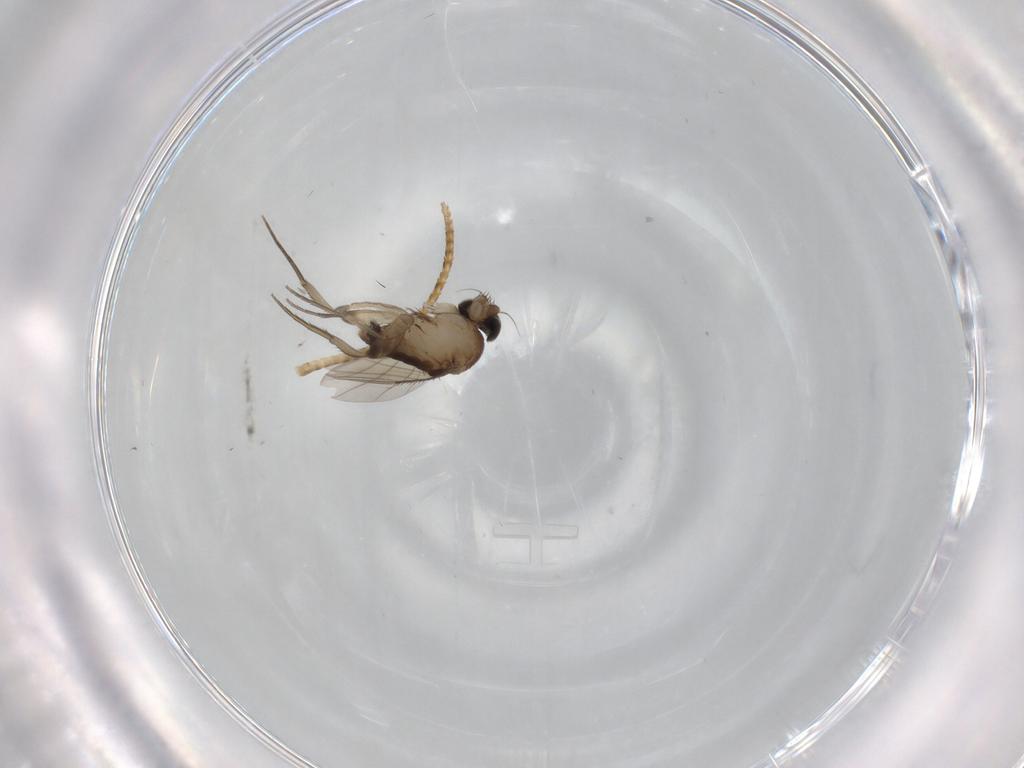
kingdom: Animalia
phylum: Arthropoda
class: Insecta
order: Diptera
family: Phoridae
